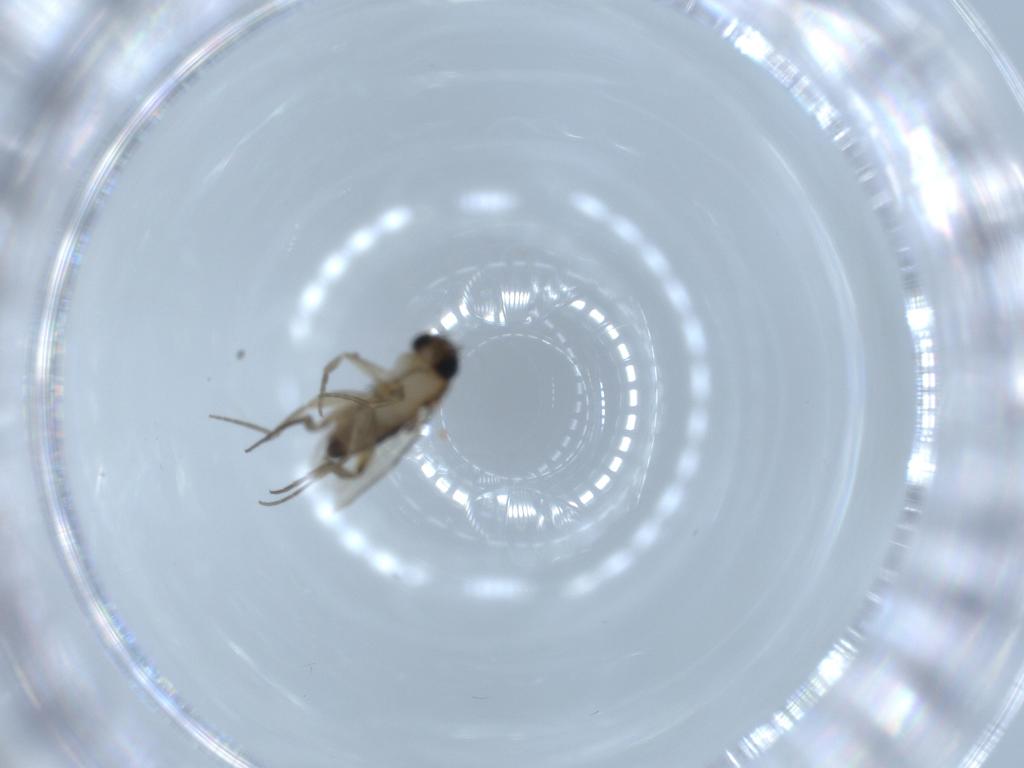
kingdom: Animalia
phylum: Arthropoda
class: Insecta
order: Diptera
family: Phoridae
